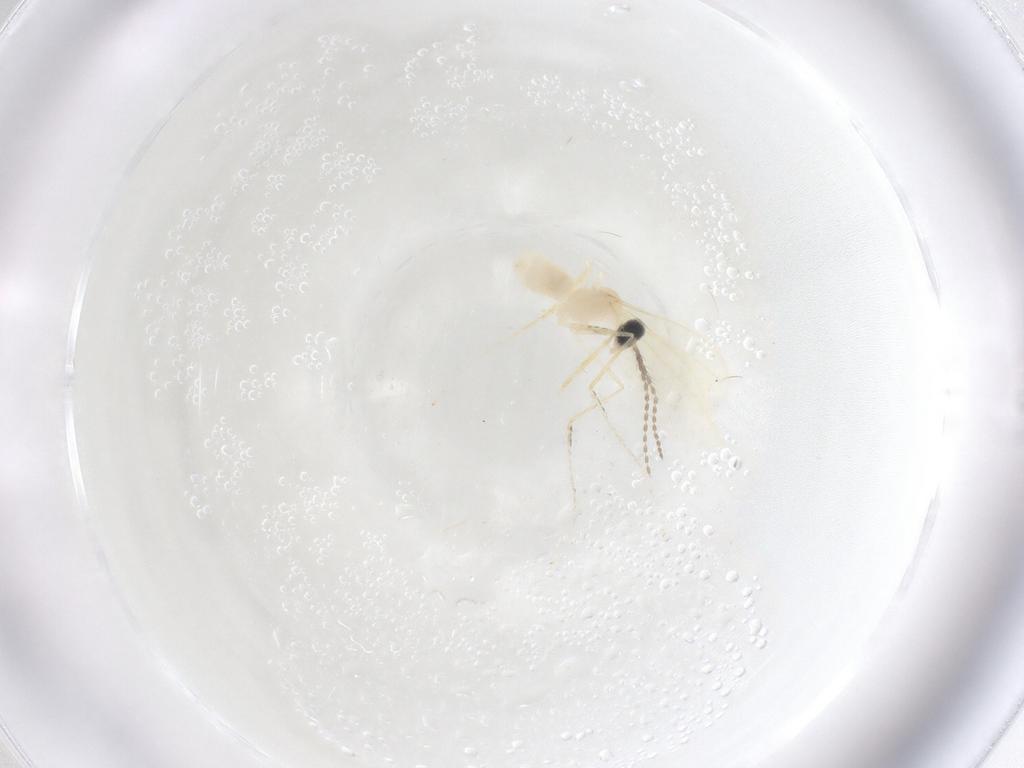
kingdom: Animalia
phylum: Arthropoda
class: Insecta
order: Diptera
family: Cecidomyiidae
